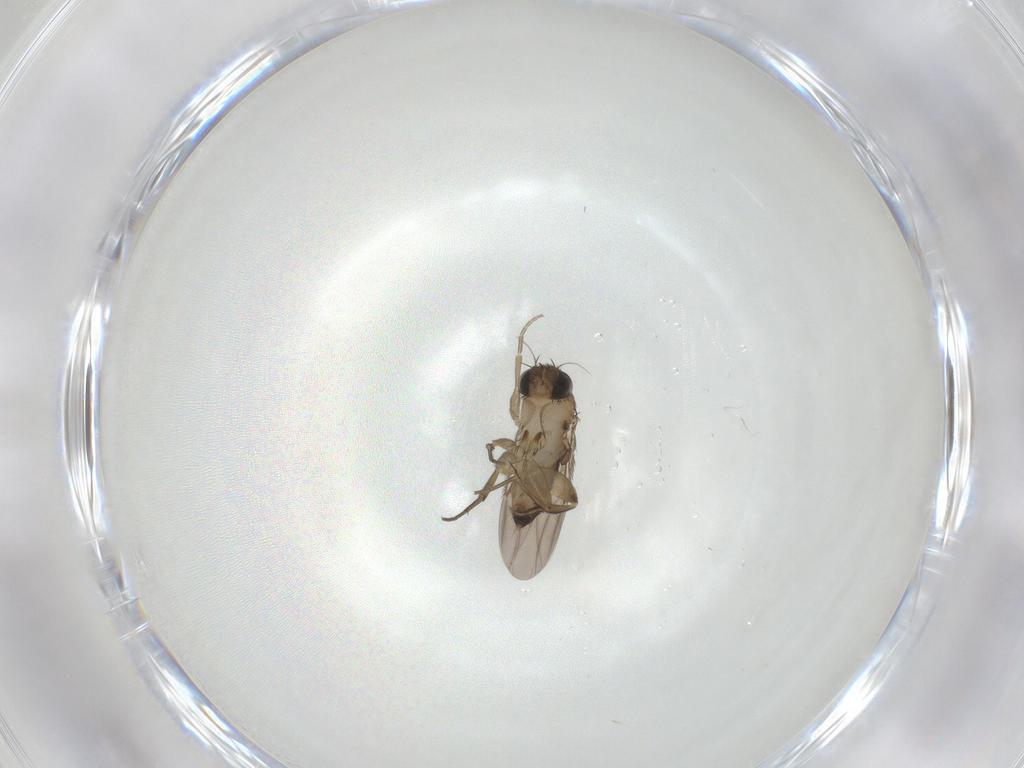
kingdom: Animalia
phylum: Arthropoda
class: Insecta
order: Diptera
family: Phoridae
